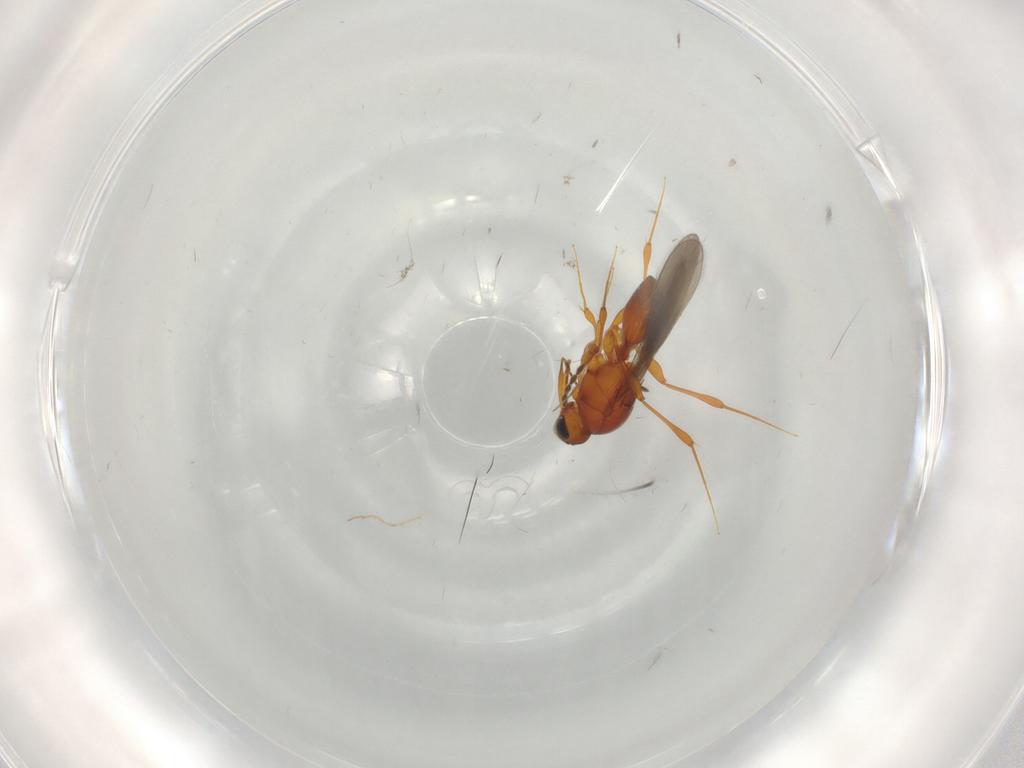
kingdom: Animalia
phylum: Arthropoda
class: Insecta
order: Hymenoptera
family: Platygastridae
